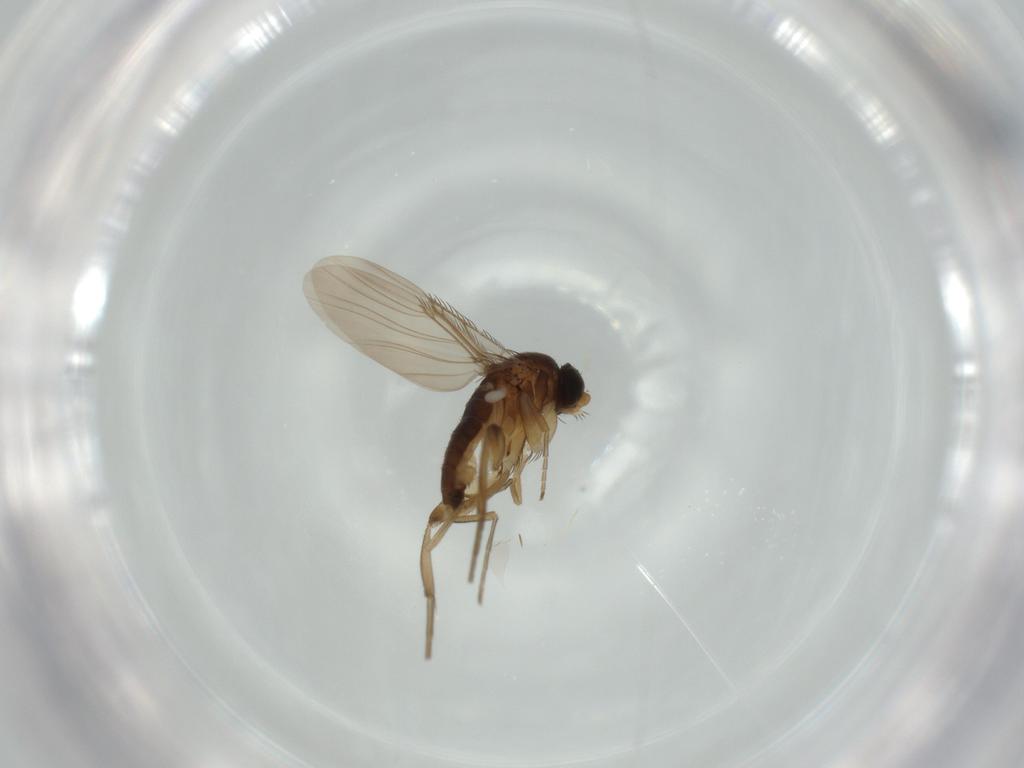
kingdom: Animalia
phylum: Arthropoda
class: Insecta
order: Diptera
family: Phoridae
